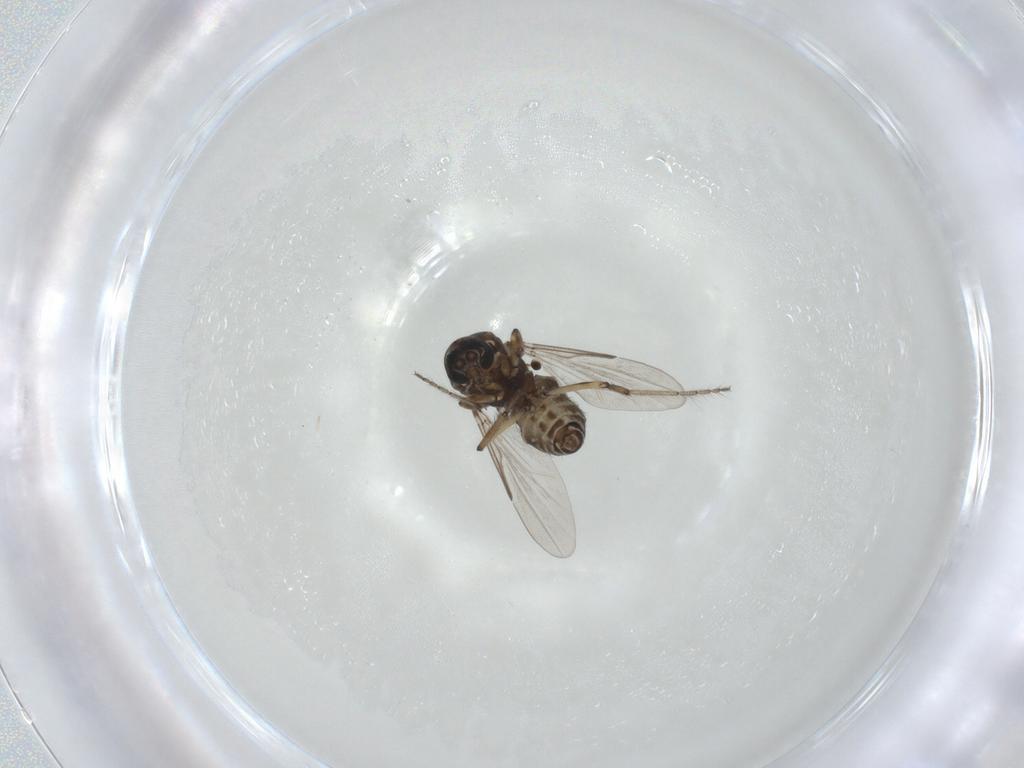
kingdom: Animalia
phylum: Arthropoda
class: Insecta
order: Diptera
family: Ceratopogonidae
